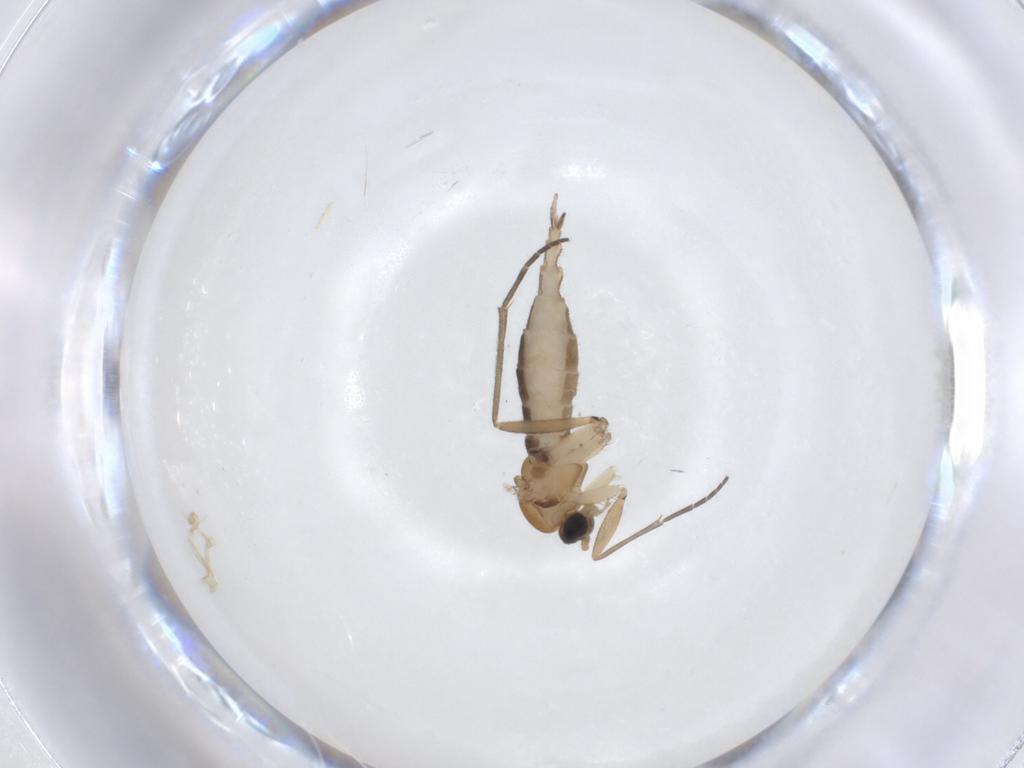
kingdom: Animalia
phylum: Arthropoda
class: Insecta
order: Diptera
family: Sciaridae
